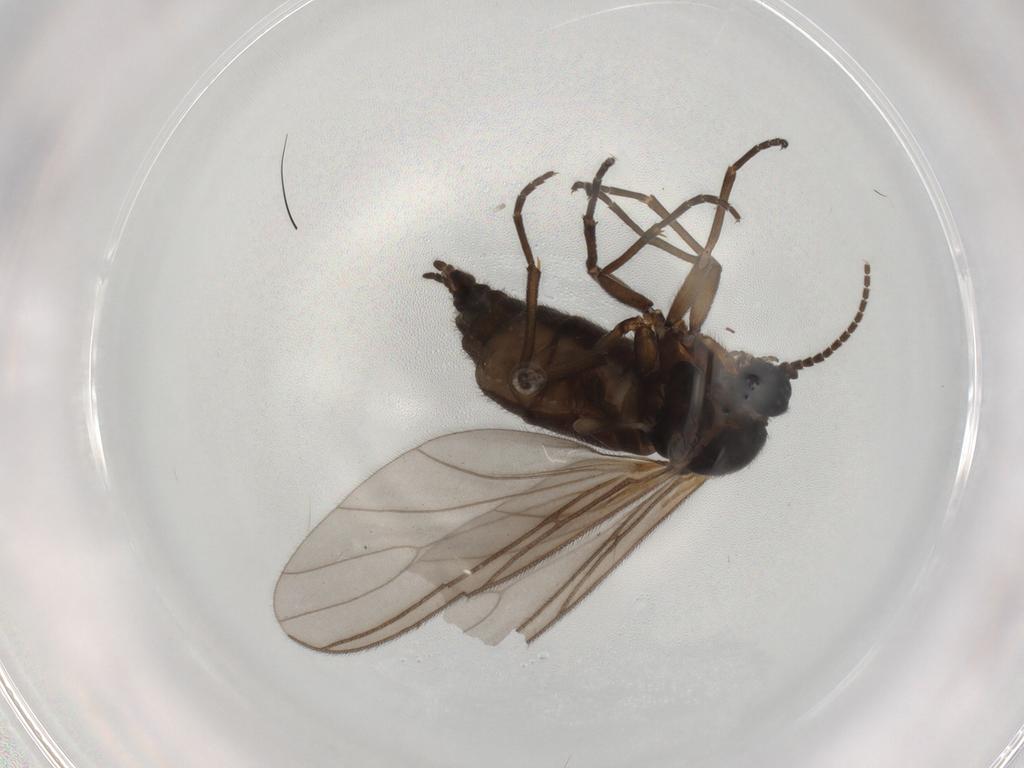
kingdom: Animalia
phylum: Arthropoda
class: Insecta
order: Diptera
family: Sciaridae
